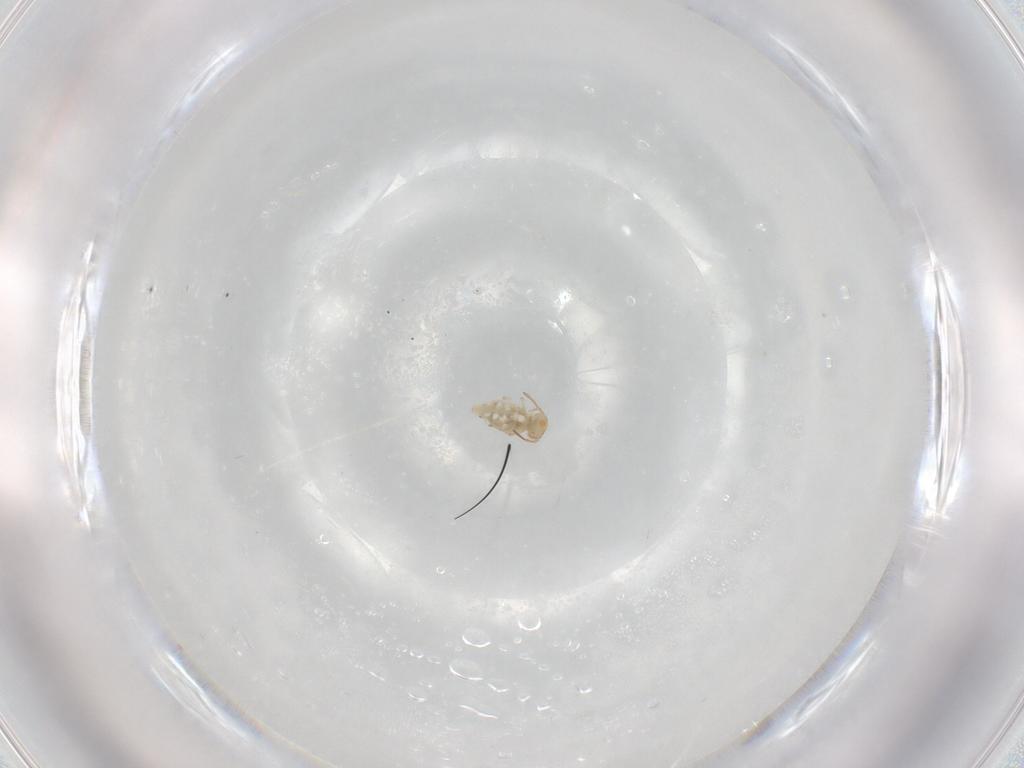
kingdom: Animalia
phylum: Arthropoda
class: Collembola
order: Symphypleona
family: Bourletiellidae
